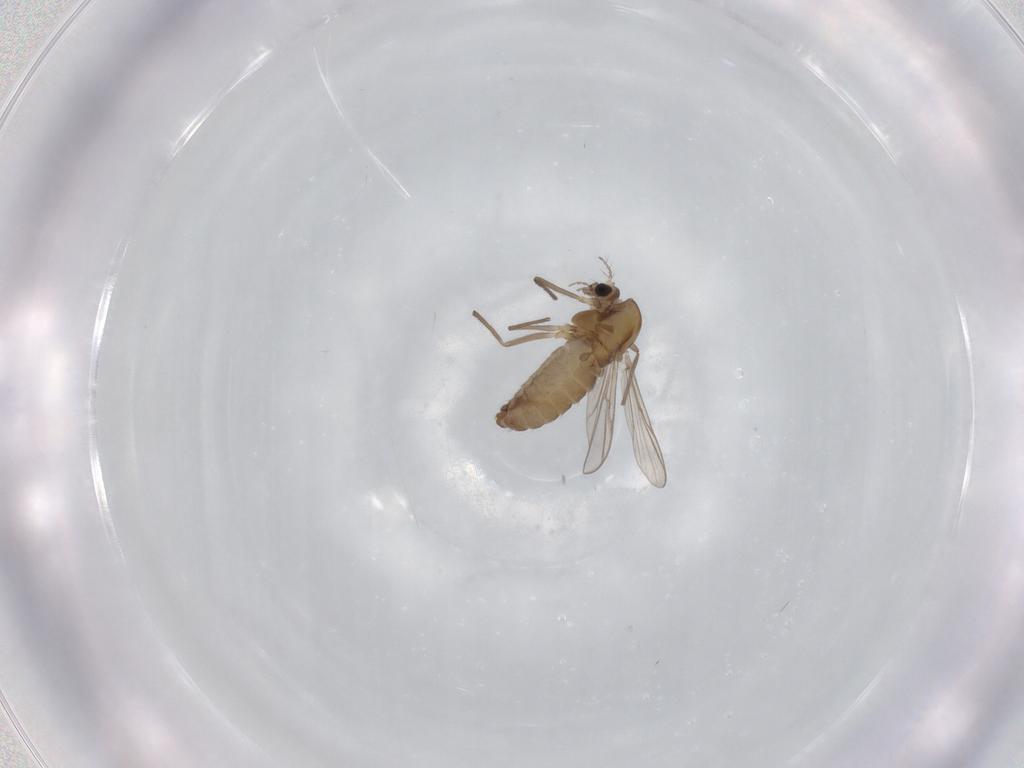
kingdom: Animalia
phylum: Arthropoda
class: Insecta
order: Diptera
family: Chironomidae
